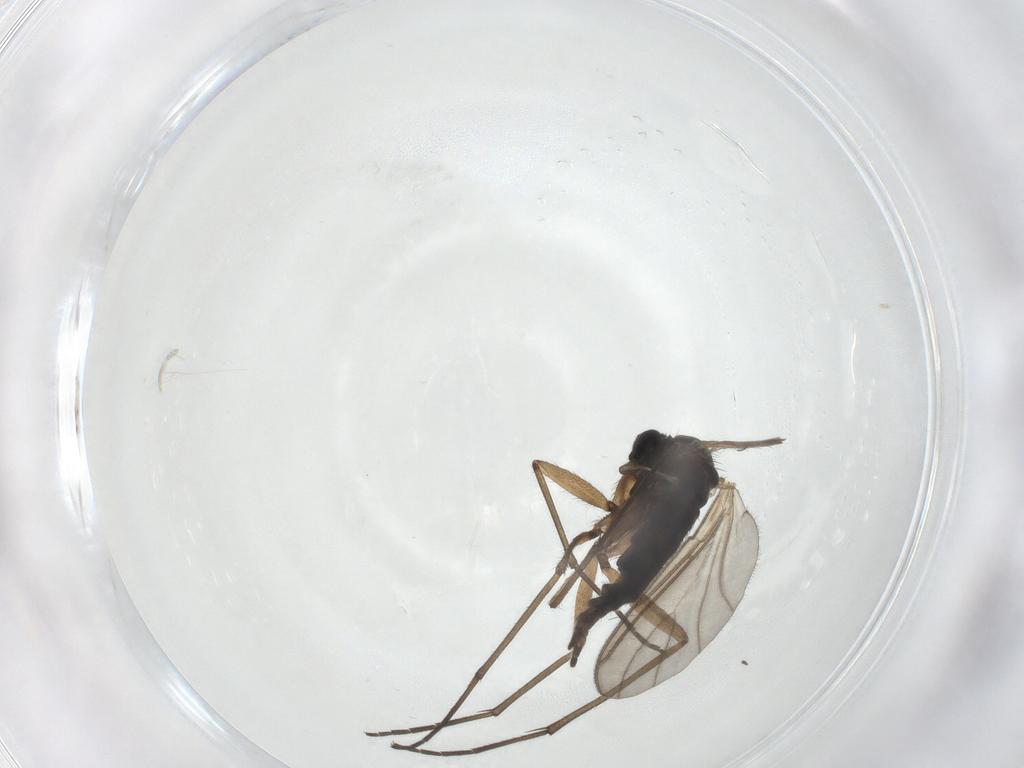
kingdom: Animalia
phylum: Arthropoda
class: Insecta
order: Diptera
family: Sciaridae
